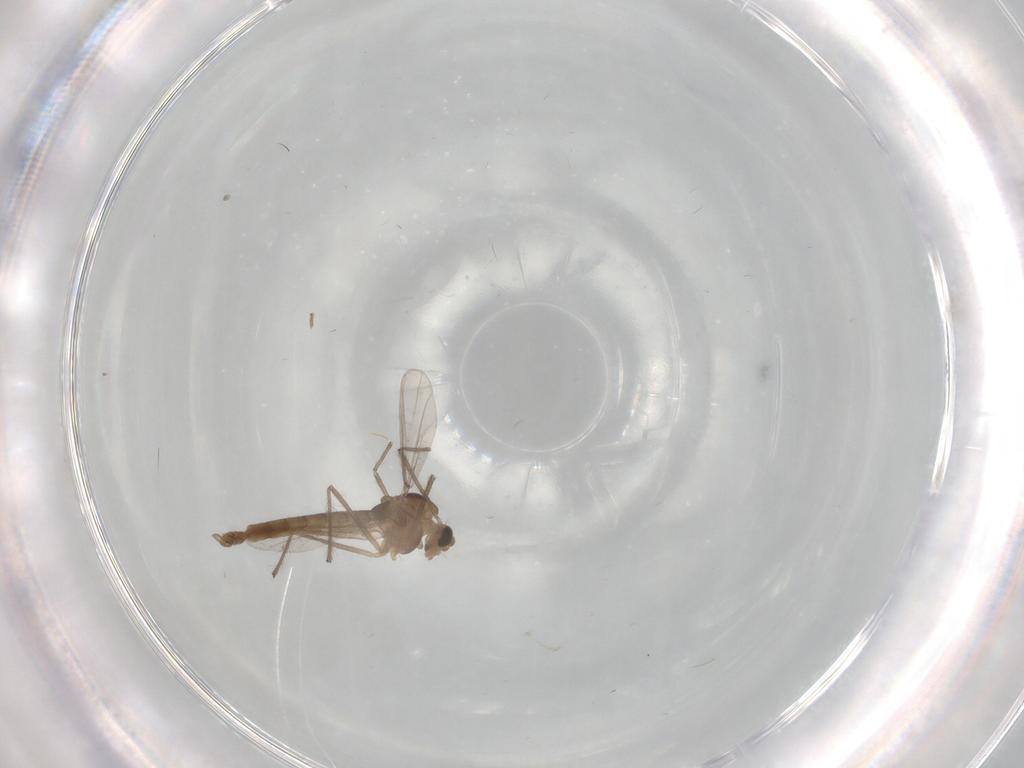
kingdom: Animalia
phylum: Arthropoda
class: Insecta
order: Diptera
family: Chironomidae
